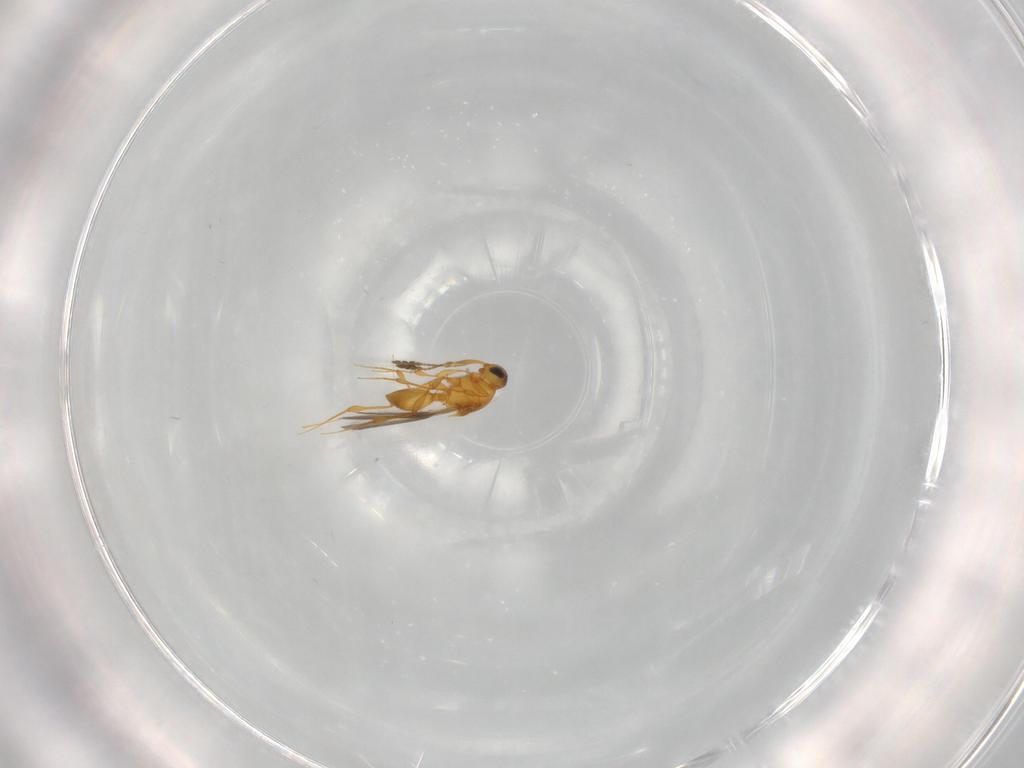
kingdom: Animalia
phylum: Arthropoda
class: Insecta
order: Hymenoptera
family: Platygastridae
